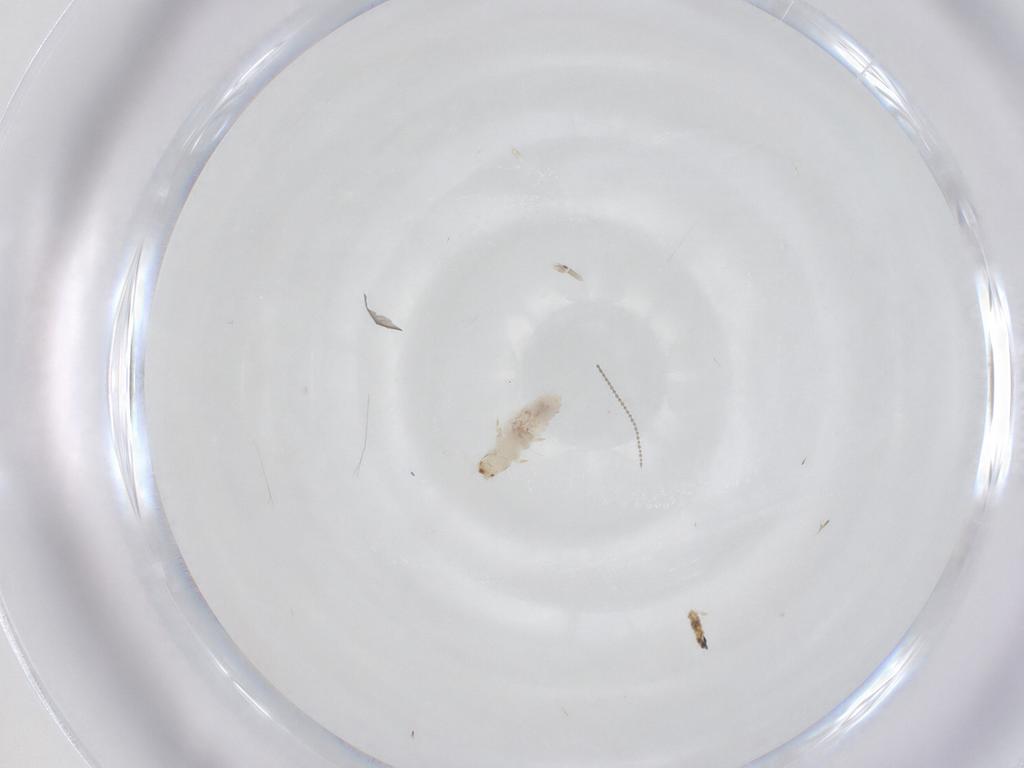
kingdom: Animalia
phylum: Arthropoda
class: Insecta
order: Coleoptera
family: Dermestidae
